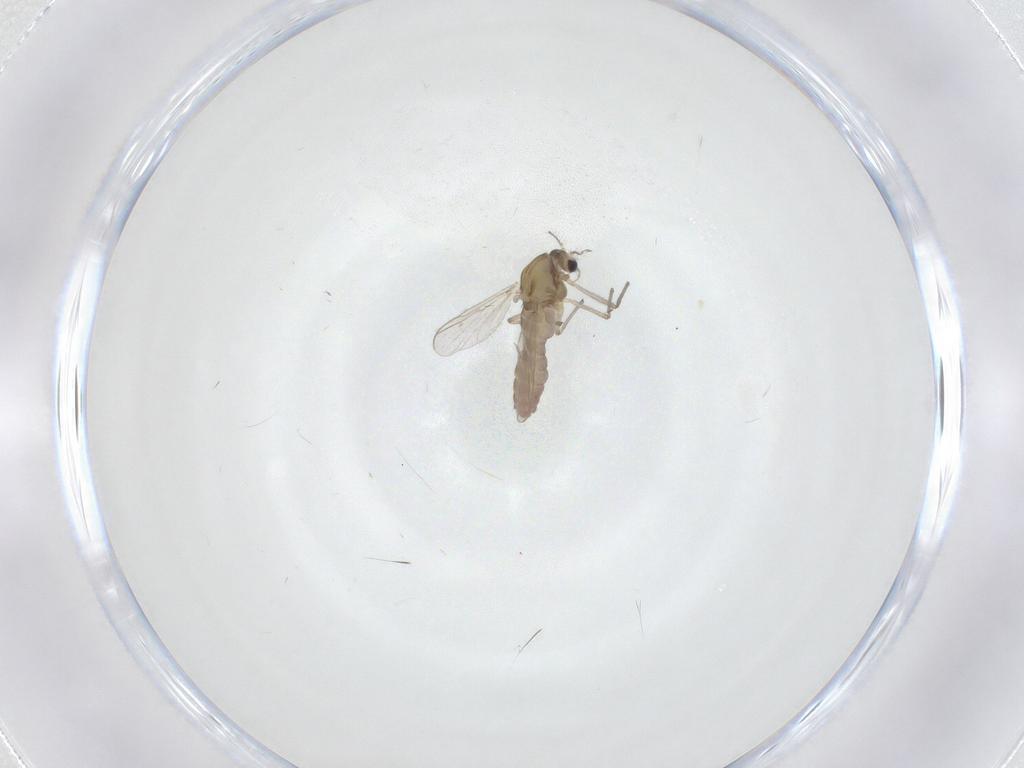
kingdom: Animalia
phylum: Arthropoda
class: Insecta
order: Diptera
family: Chironomidae
